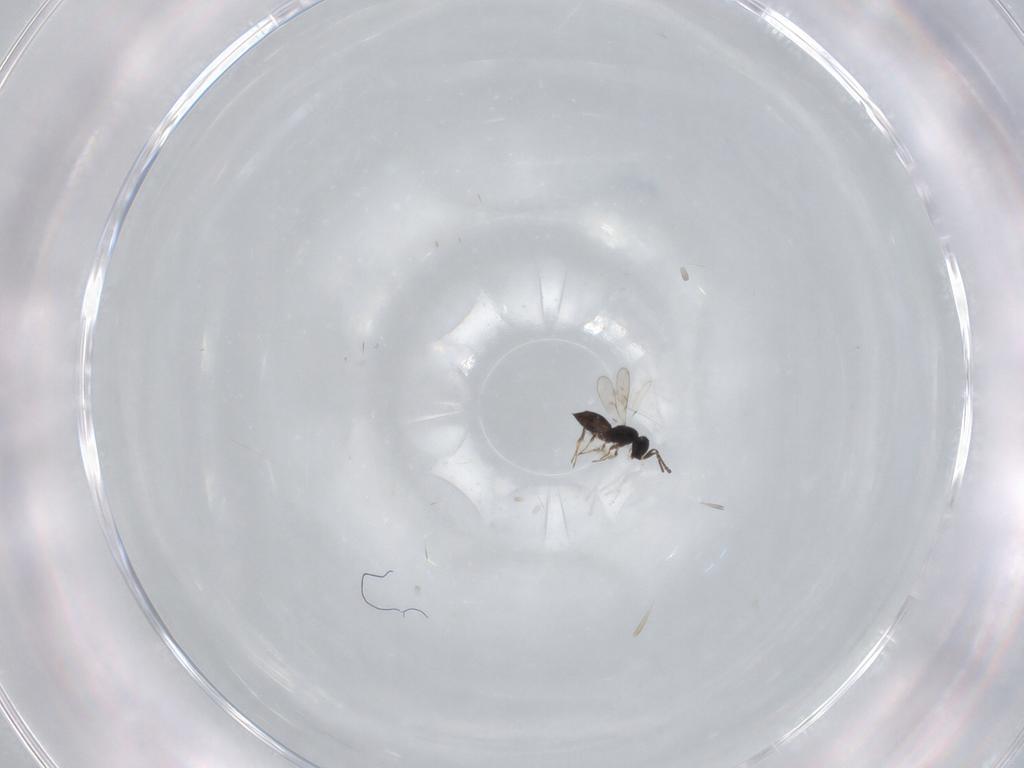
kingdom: Animalia
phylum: Arthropoda
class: Insecta
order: Hymenoptera
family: Scelionidae
